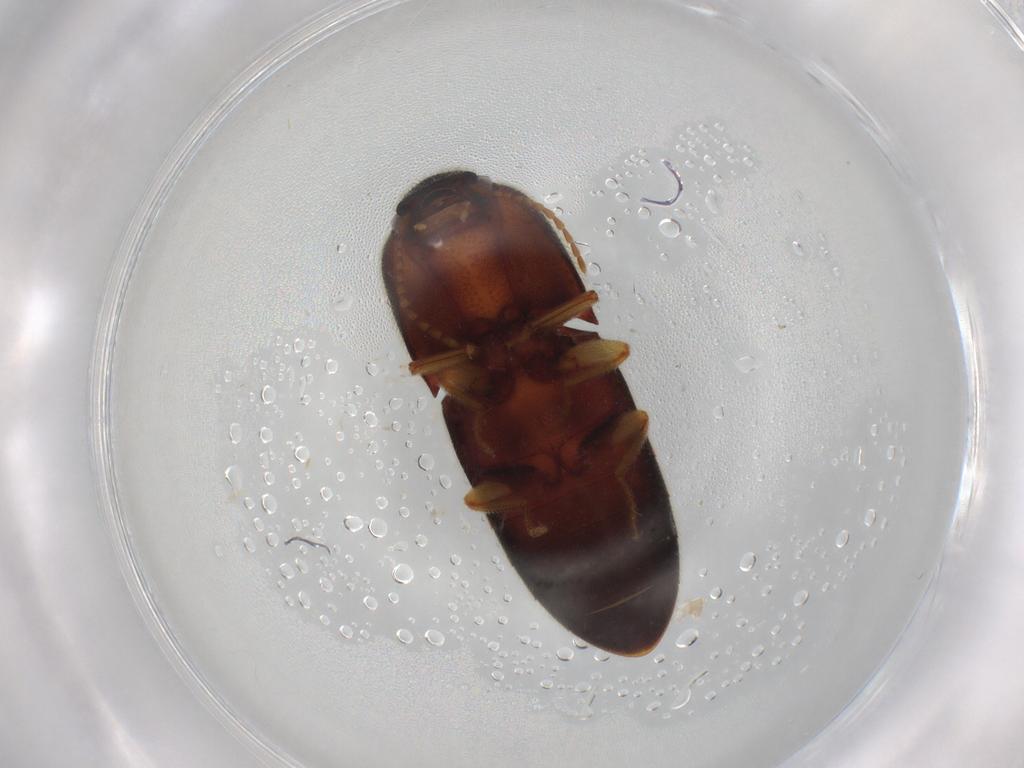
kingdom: Animalia
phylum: Arthropoda
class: Insecta
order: Coleoptera
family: Elateridae
